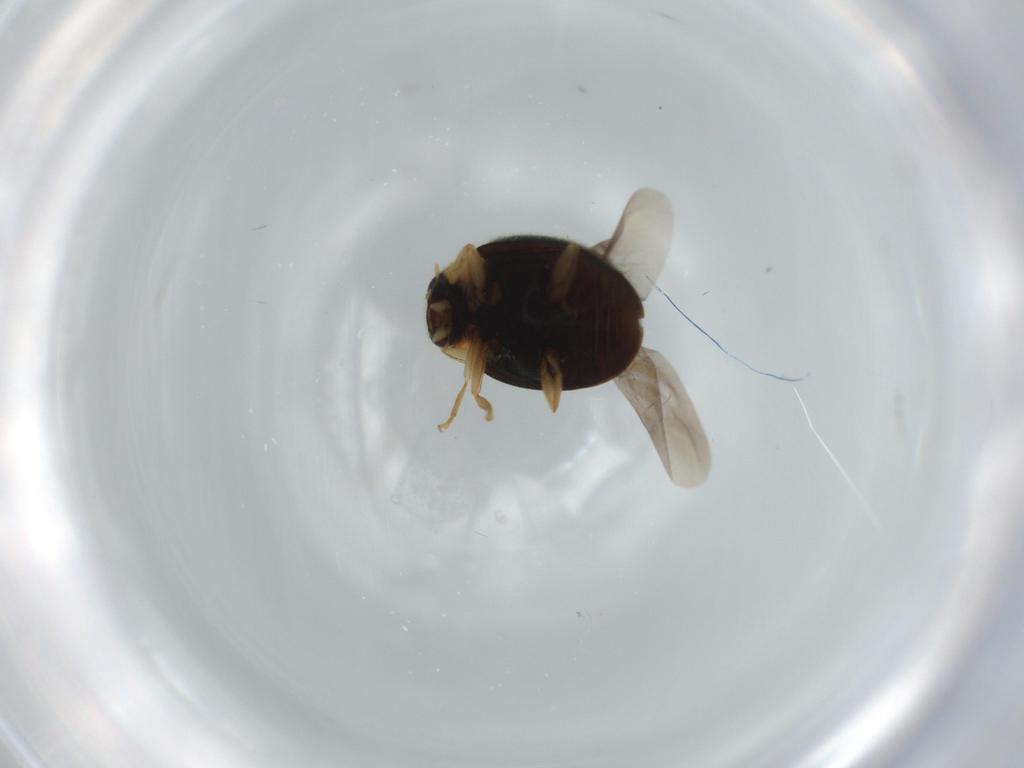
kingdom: Animalia
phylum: Arthropoda
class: Insecta
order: Coleoptera
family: Coccinellidae
